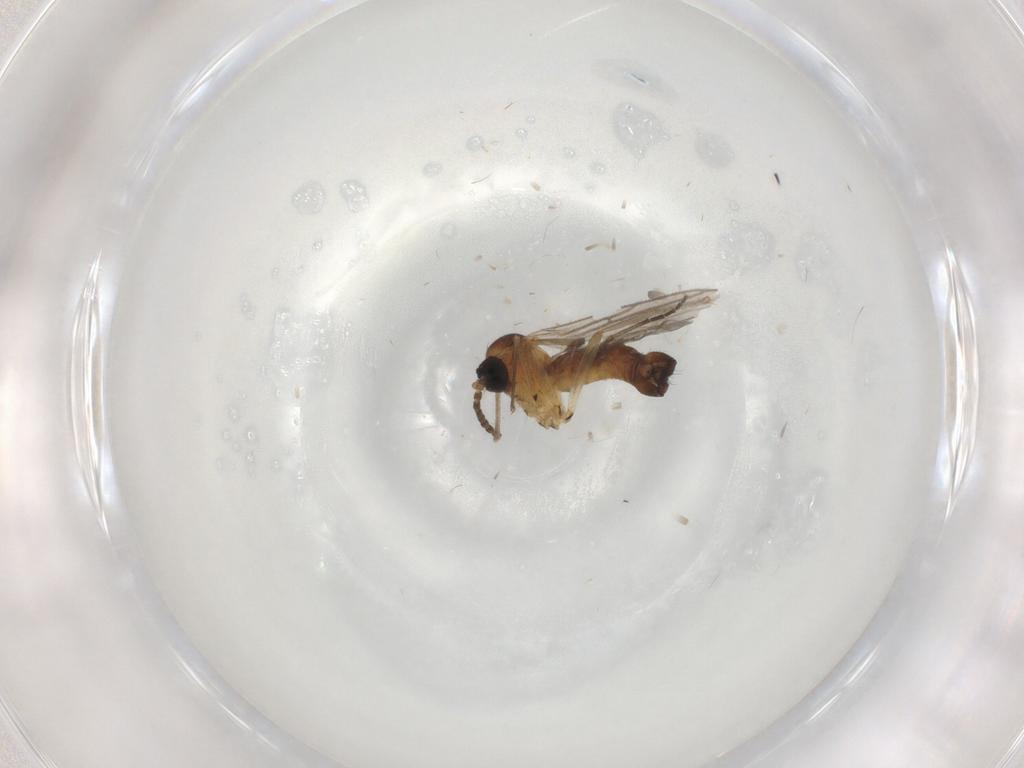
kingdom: Animalia
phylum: Arthropoda
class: Insecta
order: Diptera
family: Sciaridae
